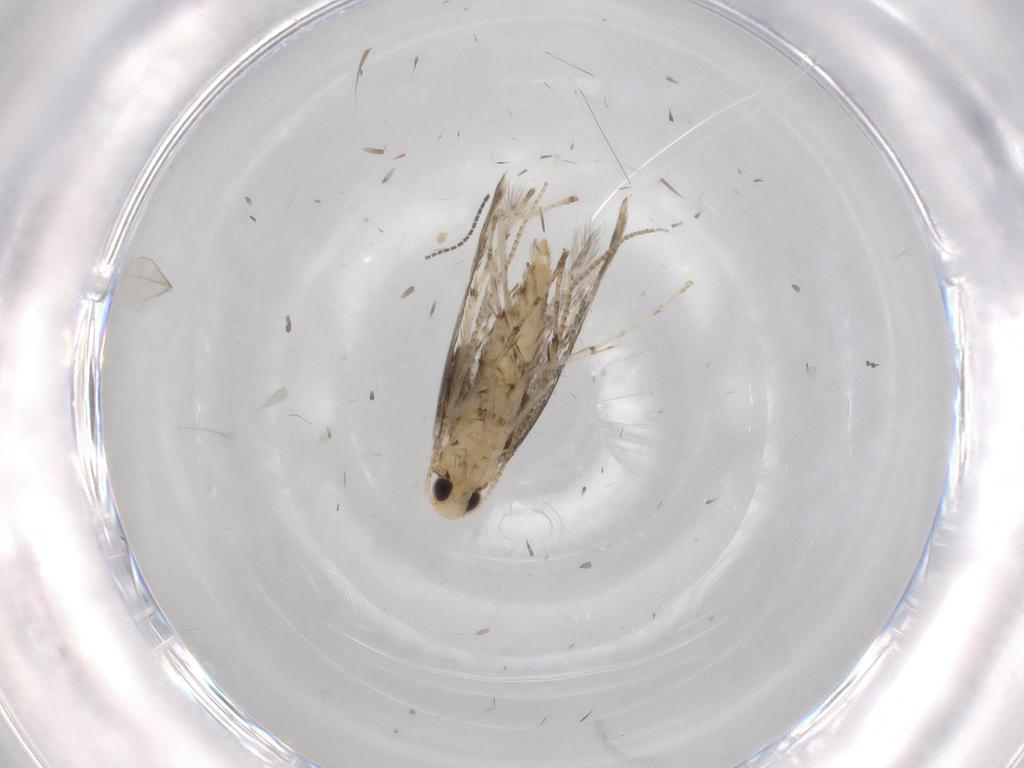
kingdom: Animalia
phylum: Arthropoda
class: Insecta
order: Lepidoptera
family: Gracillariidae
